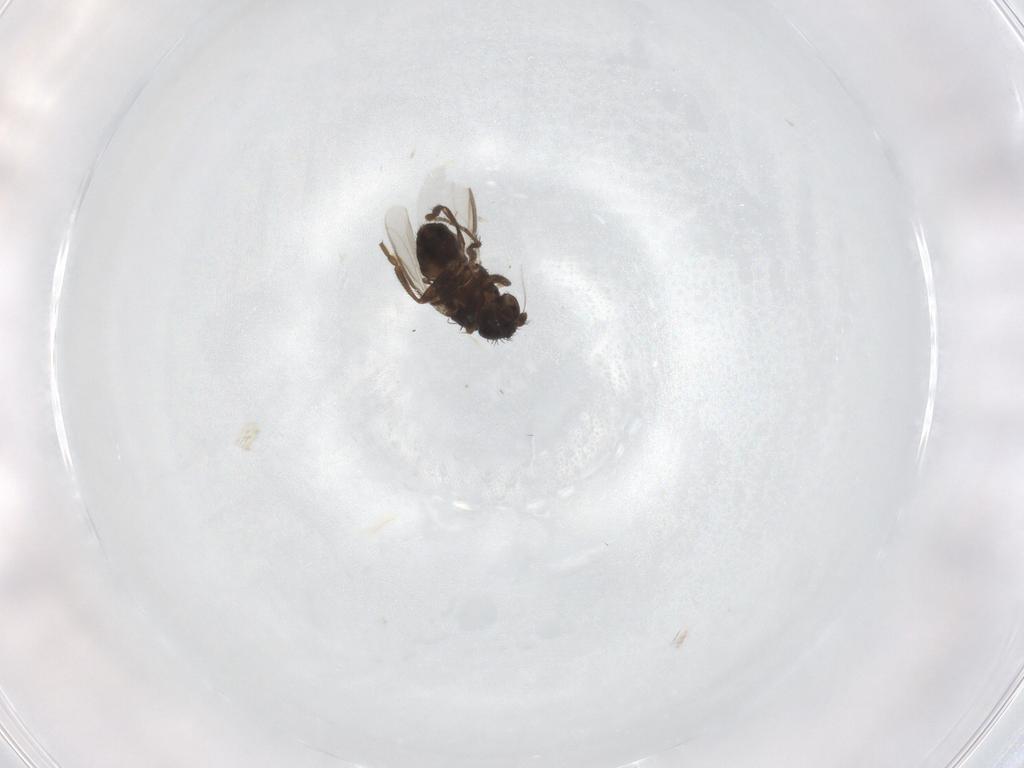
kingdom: Animalia
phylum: Arthropoda
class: Insecta
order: Diptera
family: Sphaeroceridae
